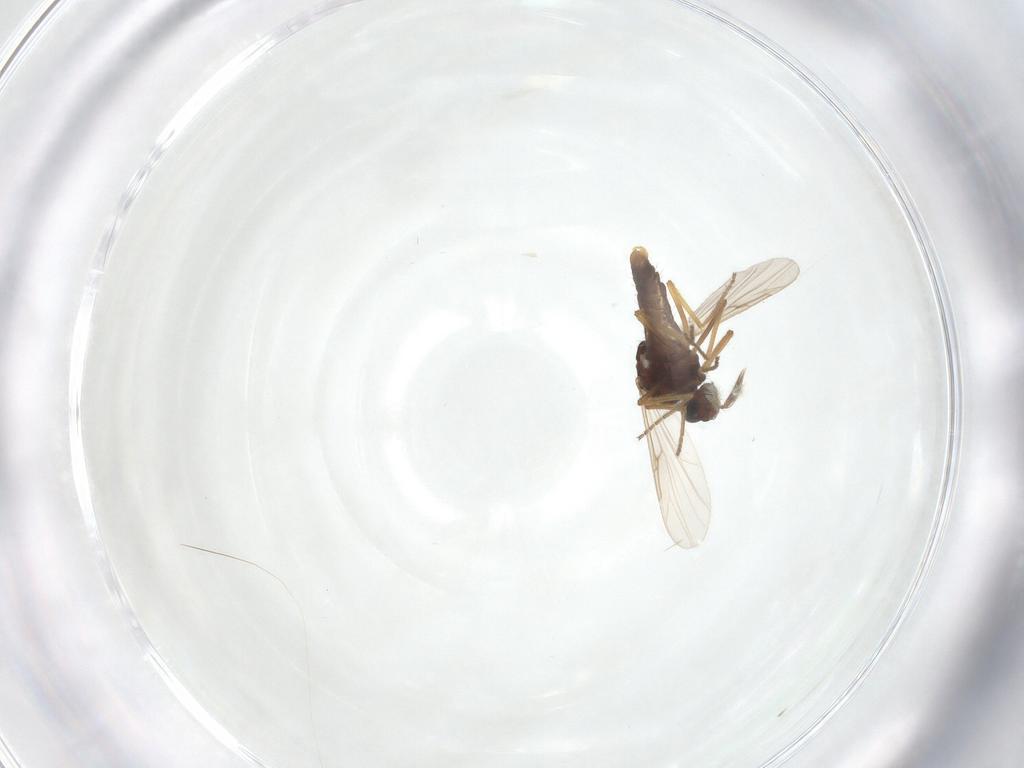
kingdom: Animalia
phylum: Arthropoda
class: Insecta
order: Diptera
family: Ceratopogonidae
